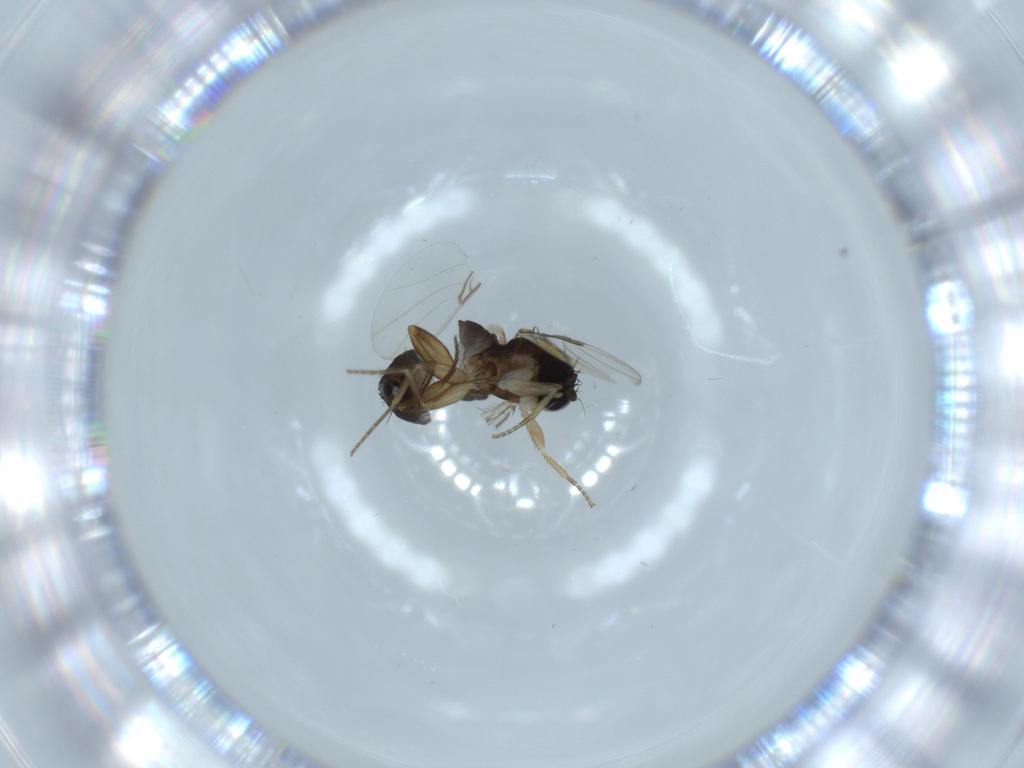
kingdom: Animalia
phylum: Arthropoda
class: Insecta
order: Diptera
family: Phoridae
